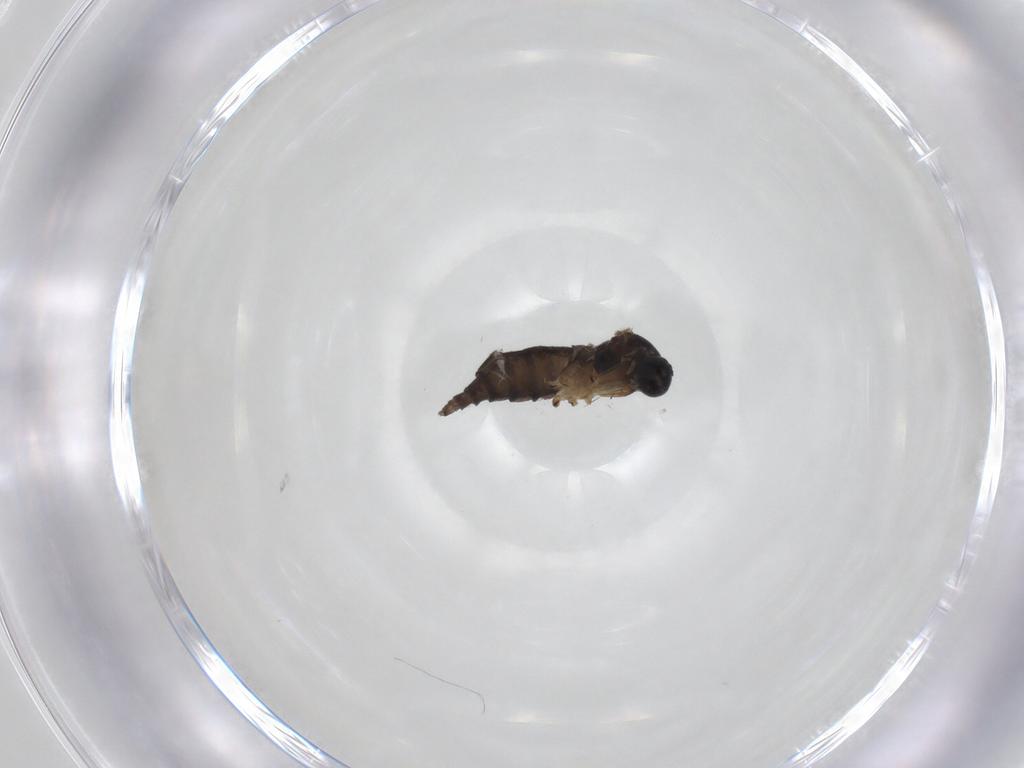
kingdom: Animalia
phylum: Arthropoda
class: Insecta
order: Diptera
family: Sciaridae
